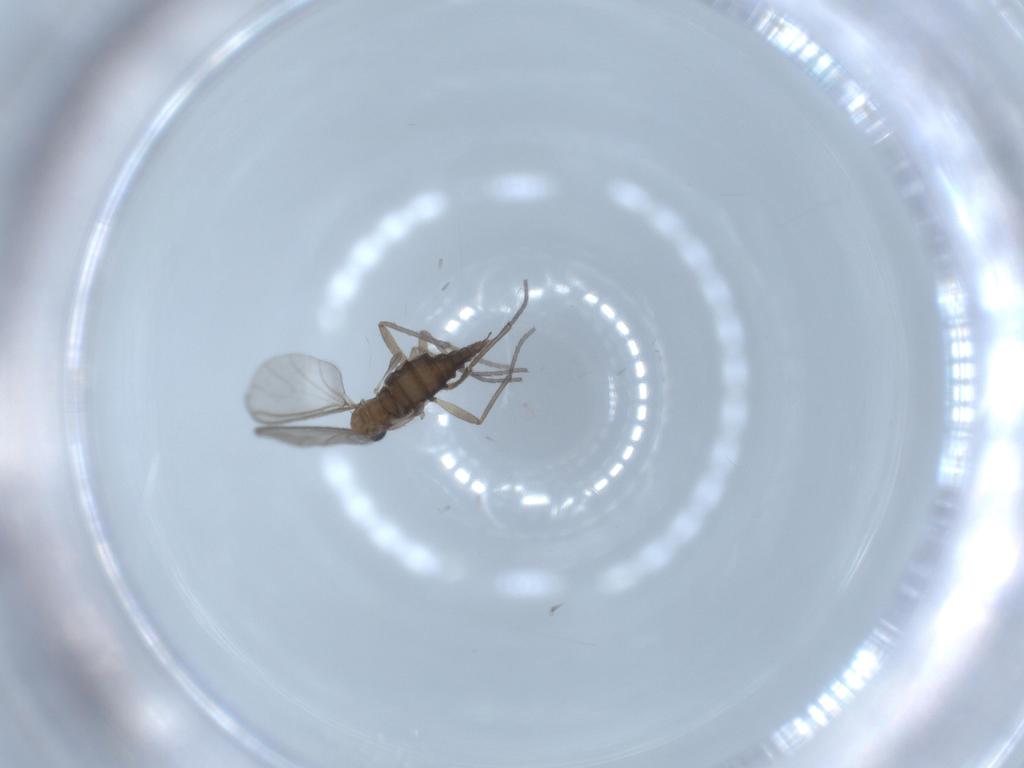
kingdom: Animalia
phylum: Arthropoda
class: Insecta
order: Diptera
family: Sciaridae
